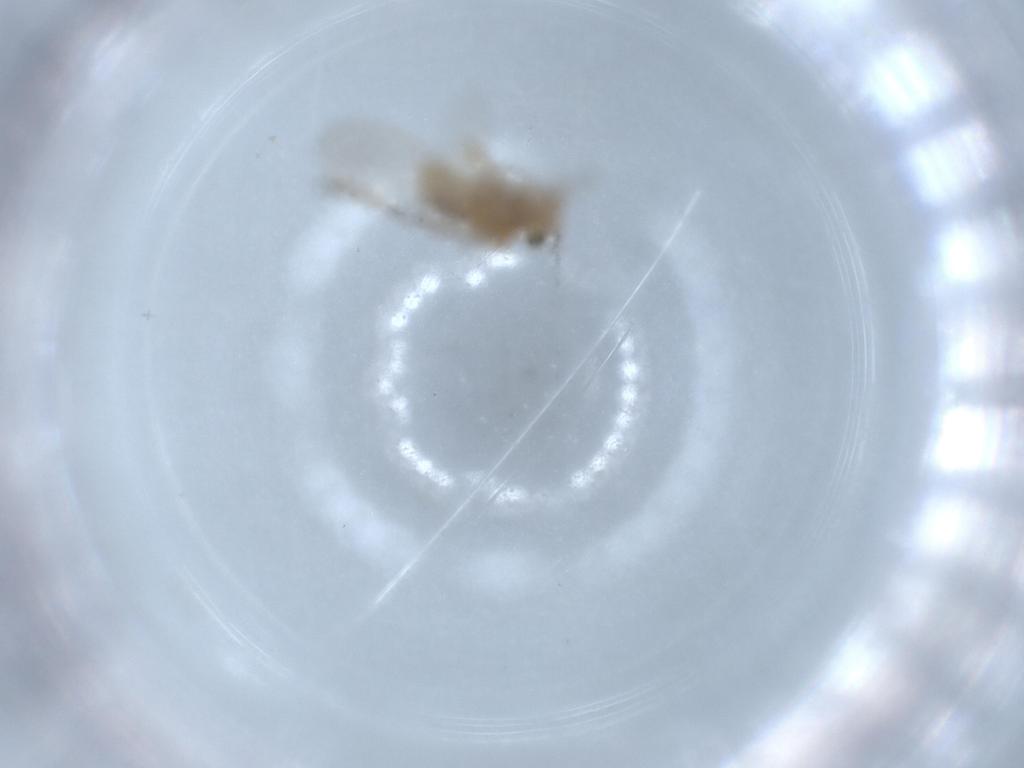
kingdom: Animalia
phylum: Arthropoda
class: Insecta
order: Psocodea
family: Lachesillidae
